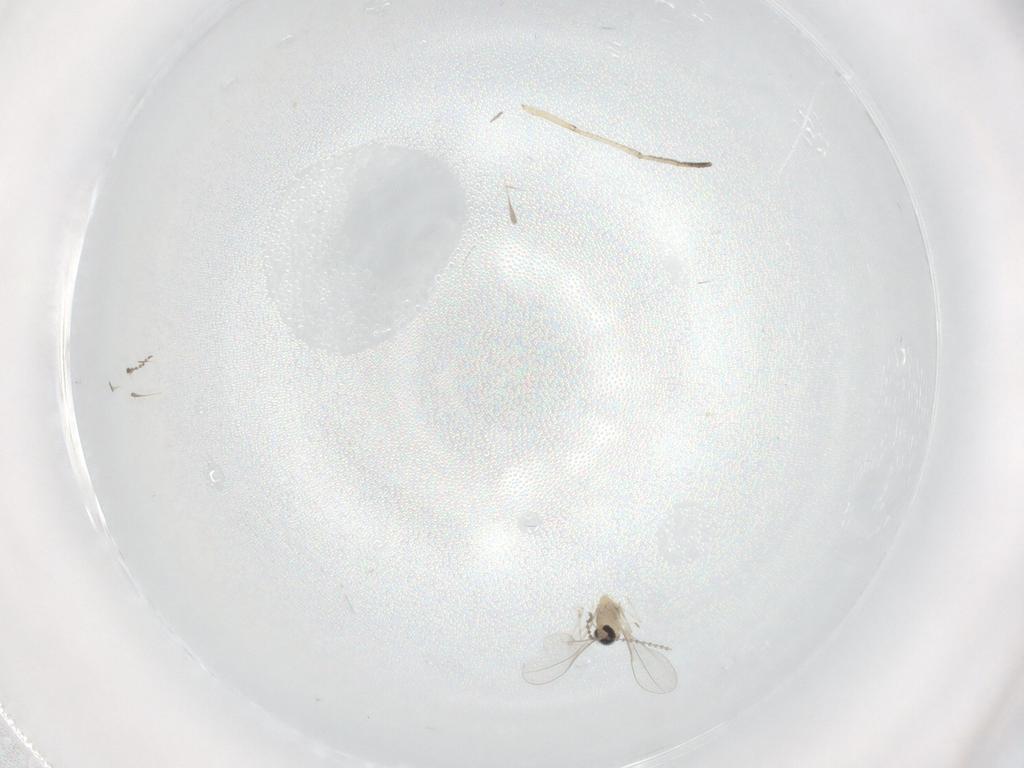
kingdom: Animalia
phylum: Arthropoda
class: Insecta
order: Diptera
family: Cecidomyiidae
